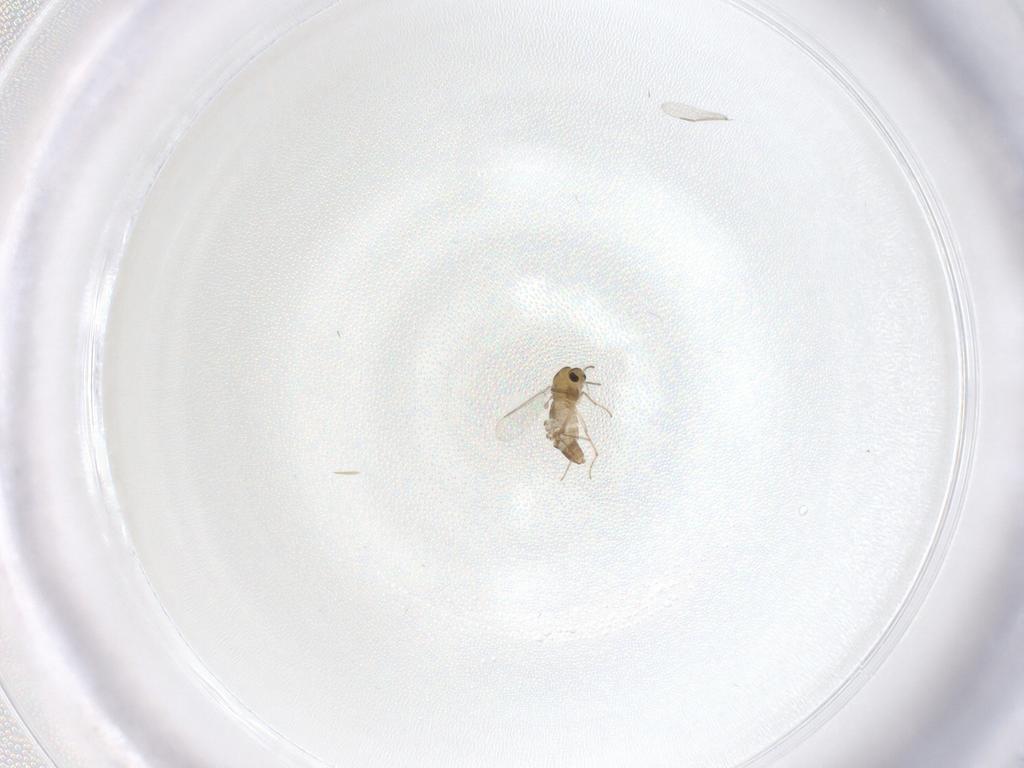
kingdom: Animalia
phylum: Arthropoda
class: Insecta
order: Diptera
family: Chironomidae
